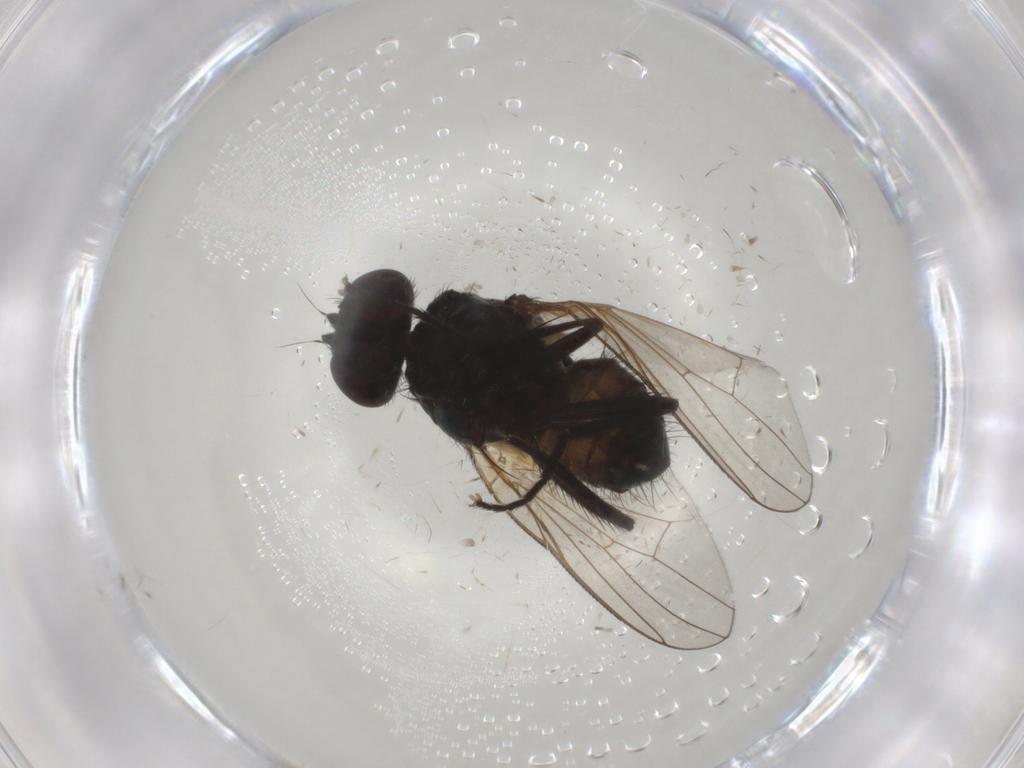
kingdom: Animalia
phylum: Arthropoda
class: Insecta
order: Diptera
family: Muscidae
